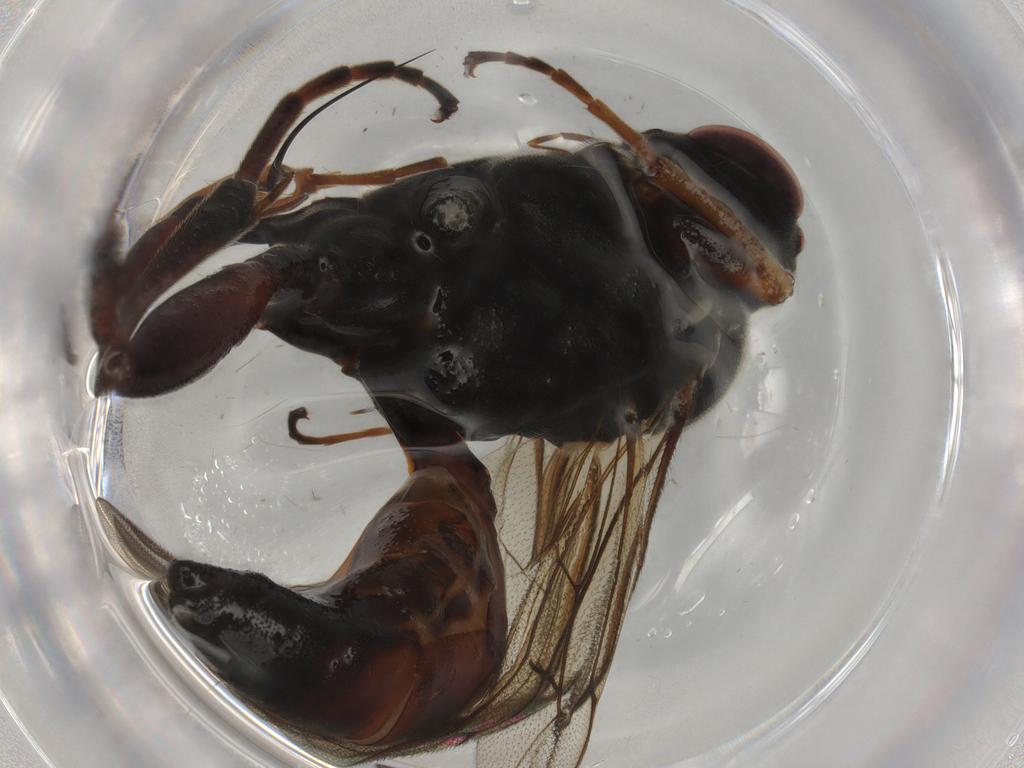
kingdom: Animalia
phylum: Arthropoda
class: Insecta
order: Hymenoptera
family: Ichneumonidae
